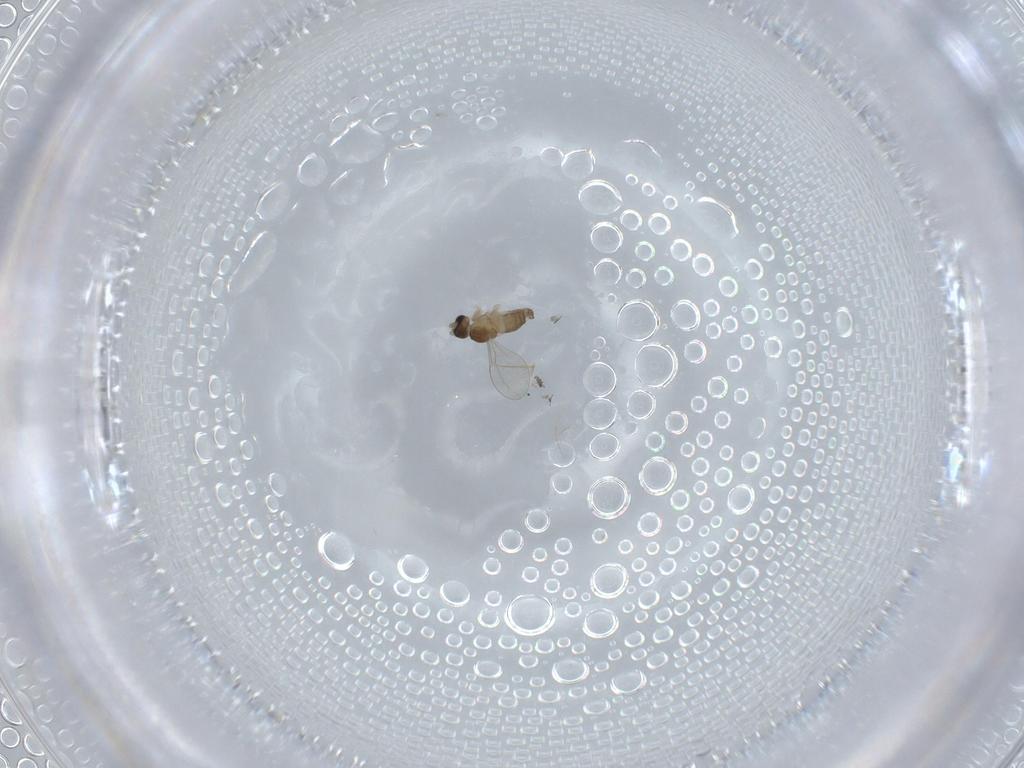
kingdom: Animalia
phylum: Arthropoda
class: Insecta
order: Diptera
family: Cecidomyiidae
